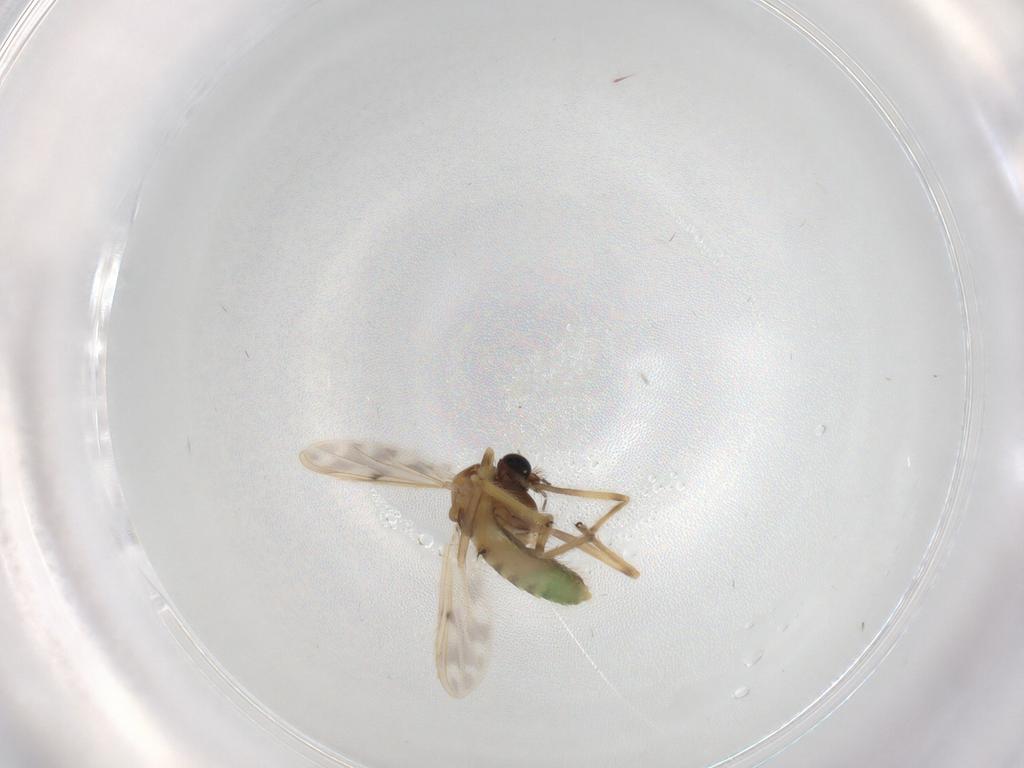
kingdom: Animalia
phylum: Arthropoda
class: Insecta
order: Diptera
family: Chironomidae
